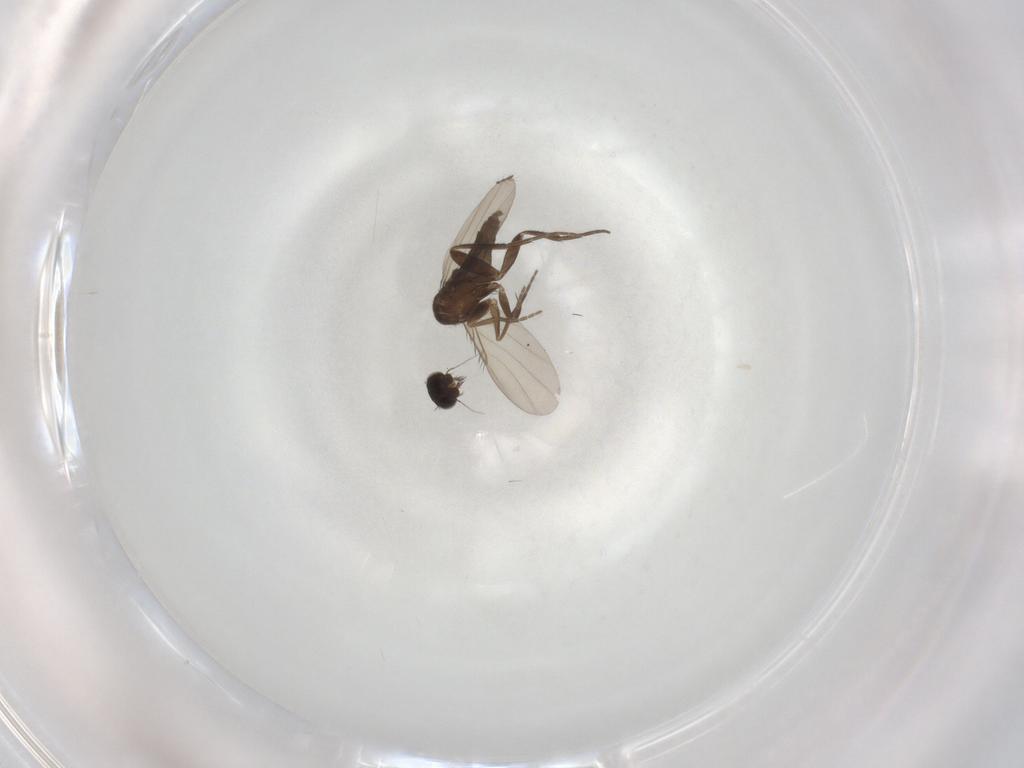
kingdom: Animalia
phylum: Arthropoda
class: Insecta
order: Diptera
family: Phoridae
